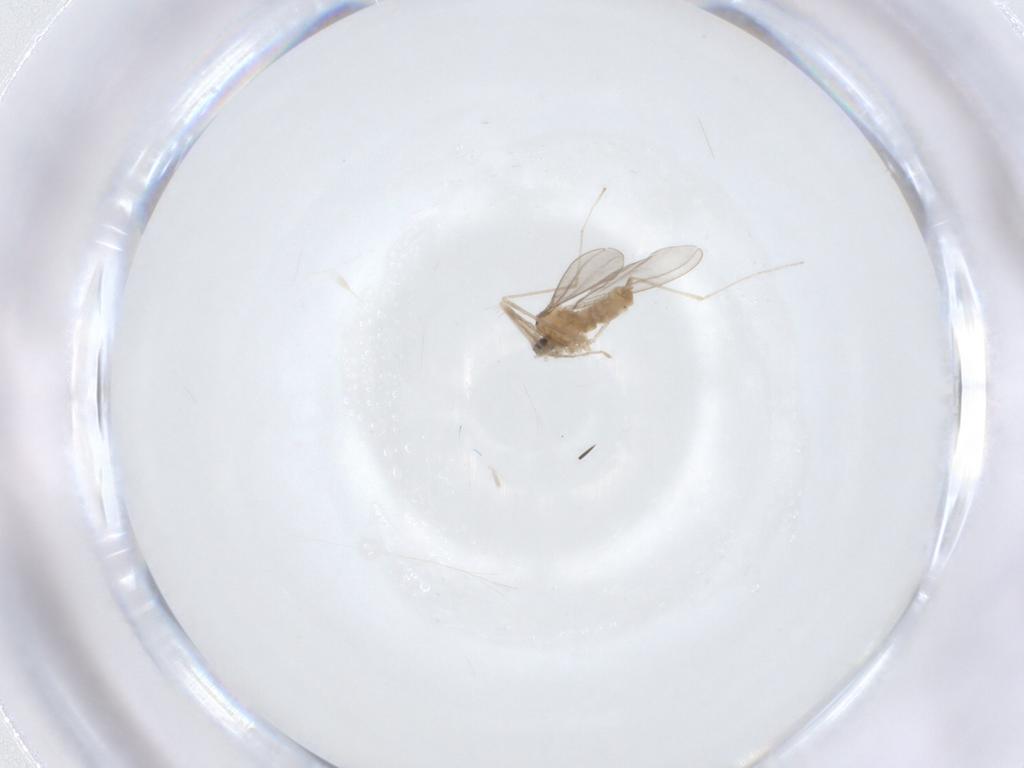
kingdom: Animalia
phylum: Arthropoda
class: Insecta
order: Diptera
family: Cecidomyiidae
